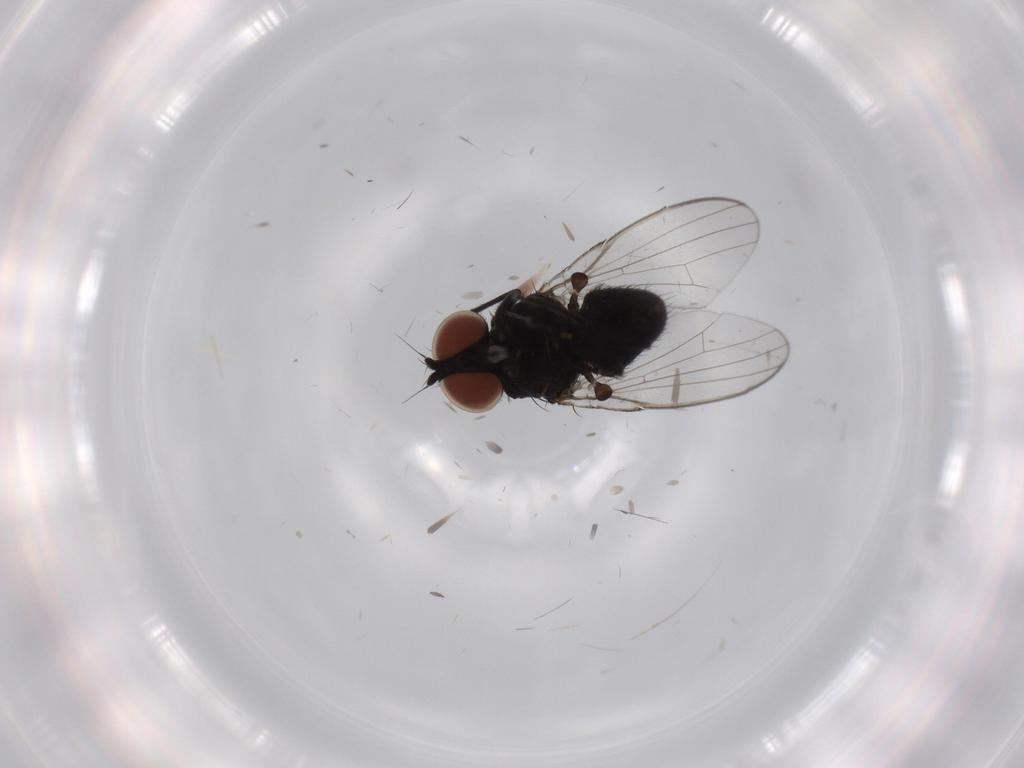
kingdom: Animalia
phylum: Arthropoda
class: Insecta
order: Diptera
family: Milichiidae
